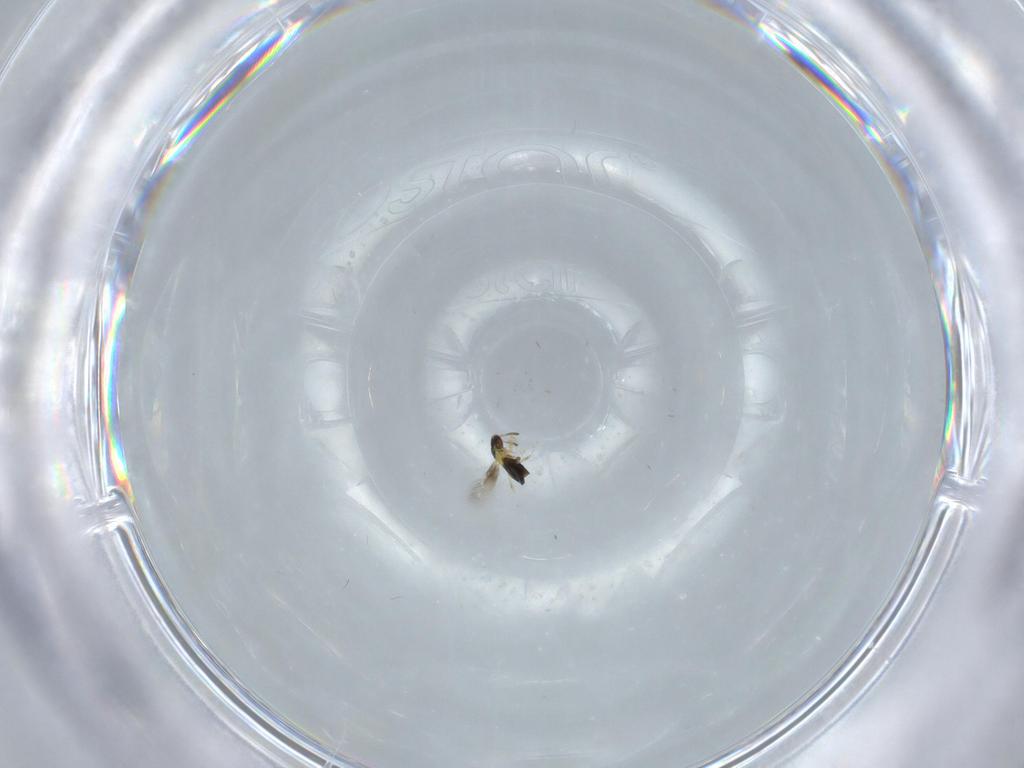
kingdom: Animalia
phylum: Arthropoda
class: Insecta
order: Hymenoptera
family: Signiphoridae
